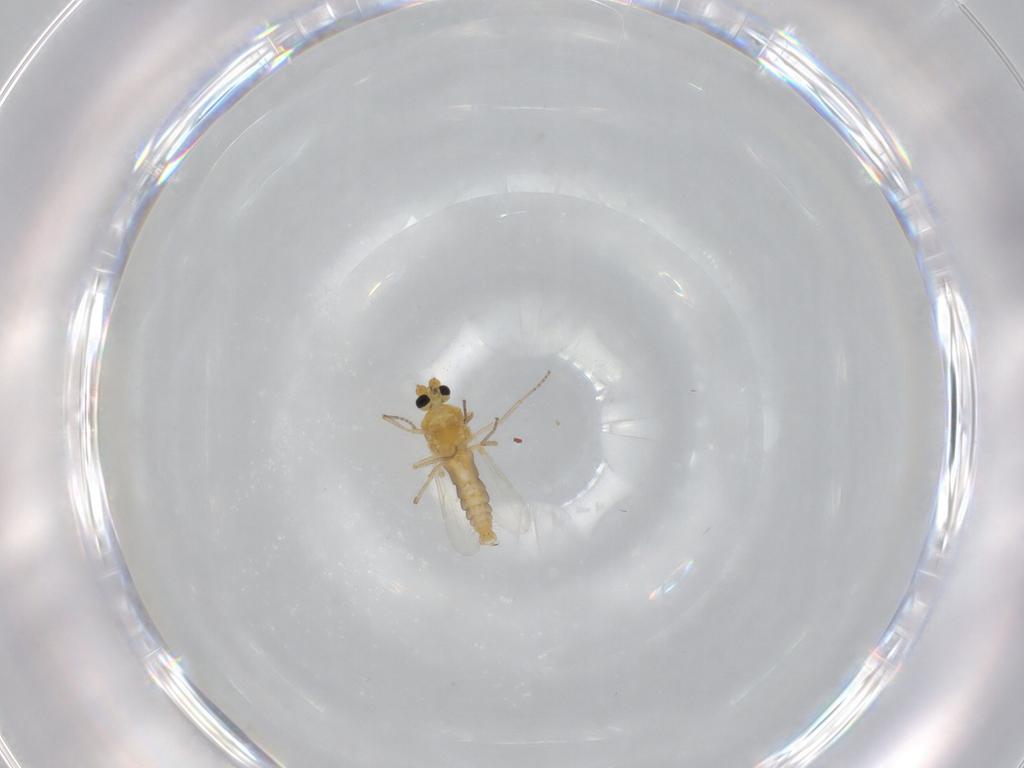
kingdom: Animalia
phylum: Arthropoda
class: Insecta
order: Diptera
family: Ceratopogonidae
